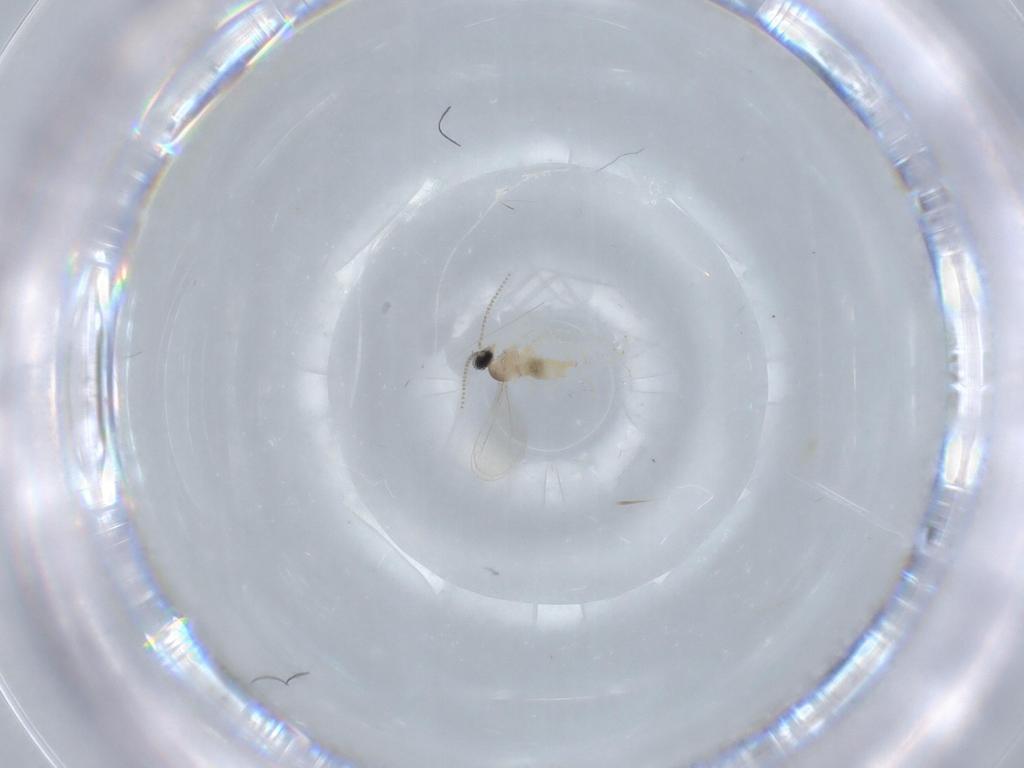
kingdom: Animalia
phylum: Arthropoda
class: Insecta
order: Diptera
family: Cecidomyiidae
